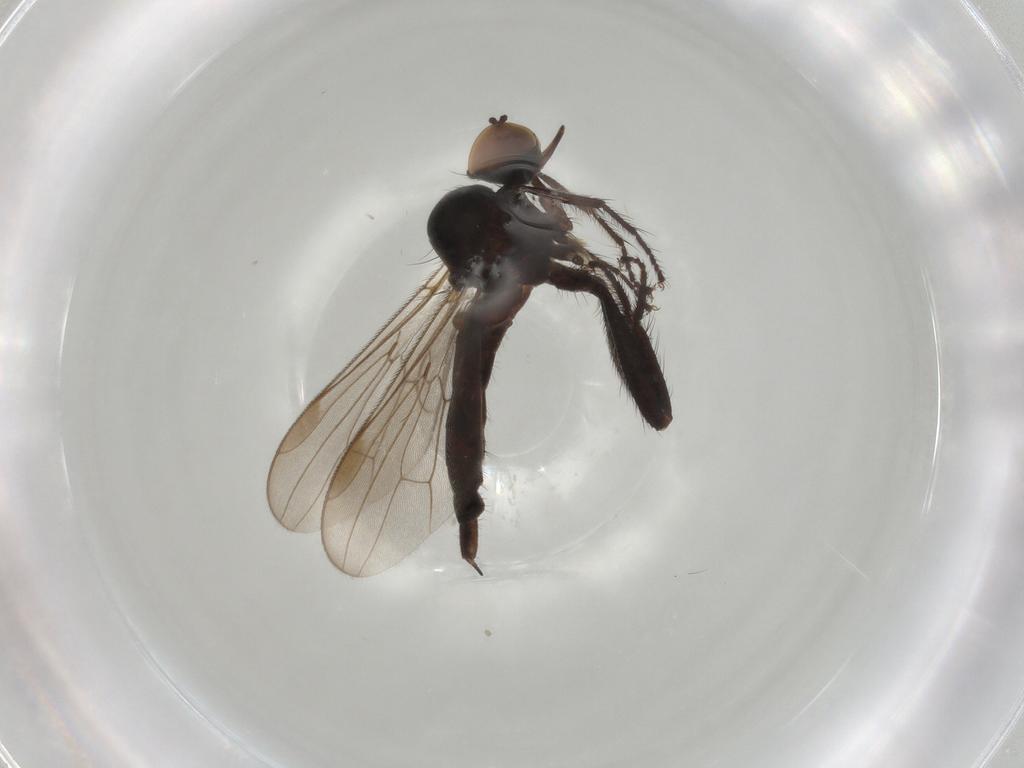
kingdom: Animalia
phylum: Arthropoda
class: Insecta
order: Diptera
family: Hybotidae
